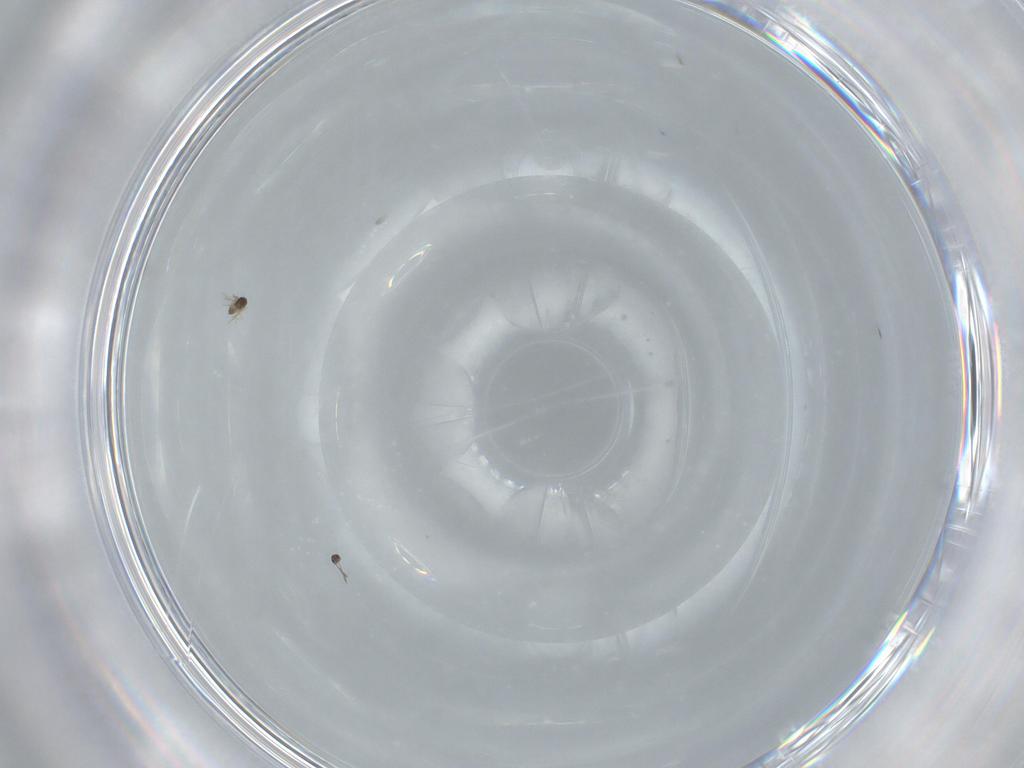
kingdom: Animalia
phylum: Arthropoda
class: Insecta
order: Hymenoptera
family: Mymaridae
